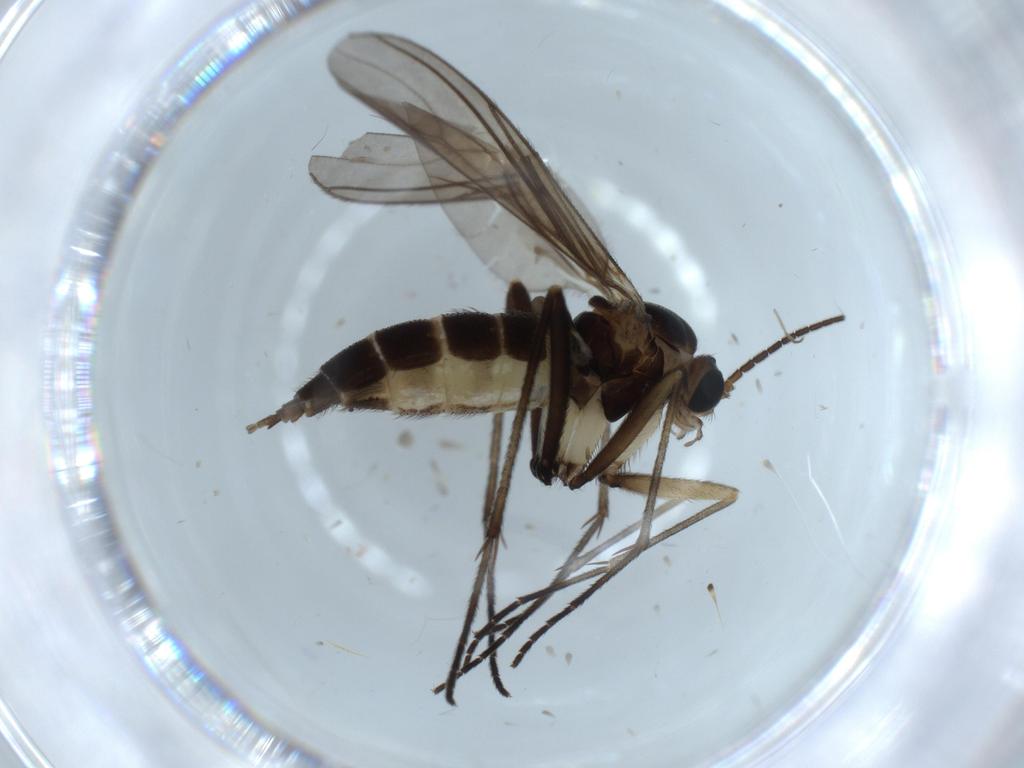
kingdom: Animalia
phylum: Arthropoda
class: Insecta
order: Diptera
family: Sciaridae
